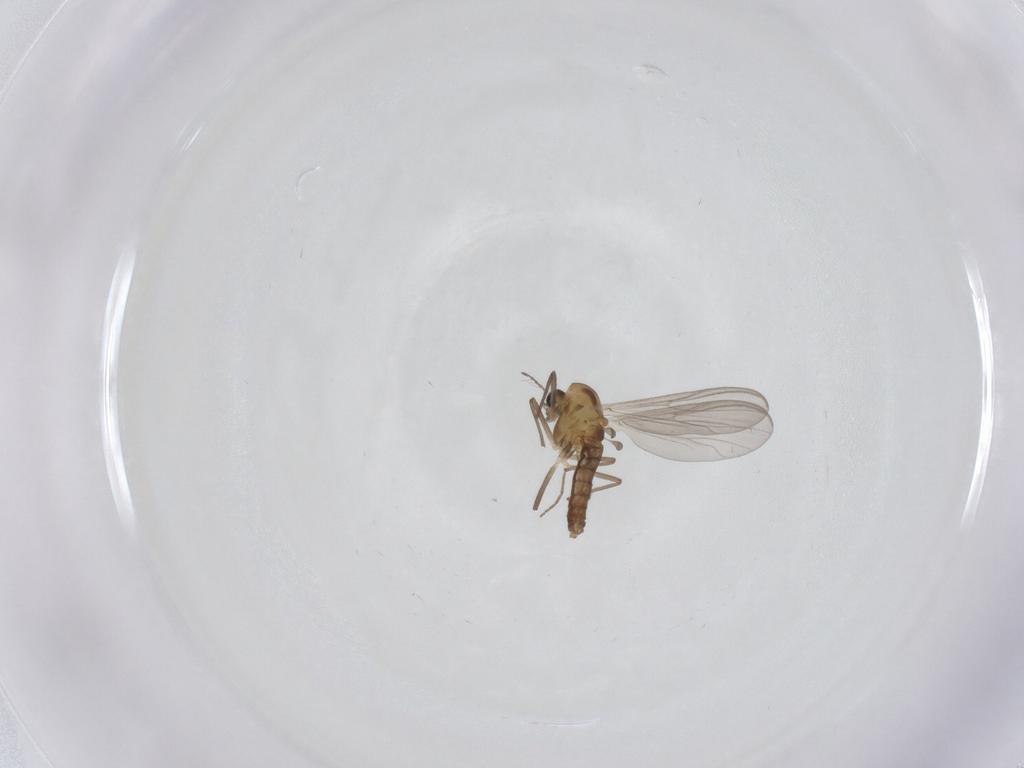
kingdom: Animalia
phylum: Arthropoda
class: Insecta
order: Diptera
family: Chironomidae
